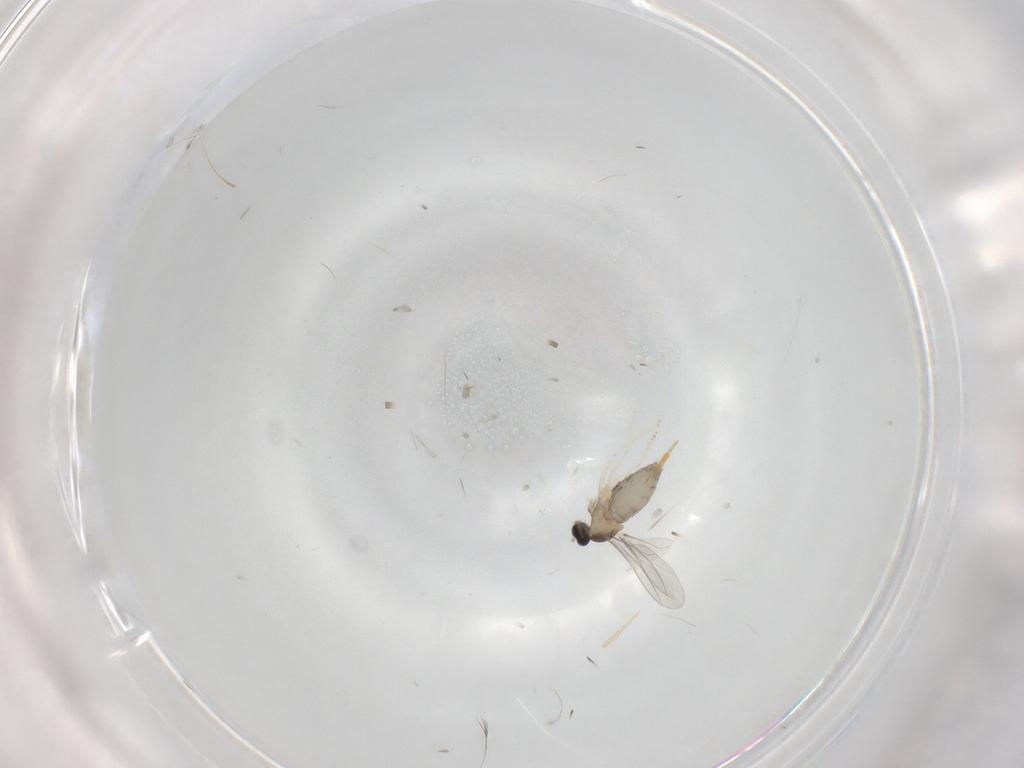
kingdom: Animalia
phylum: Arthropoda
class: Insecta
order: Diptera
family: Cecidomyiidae
